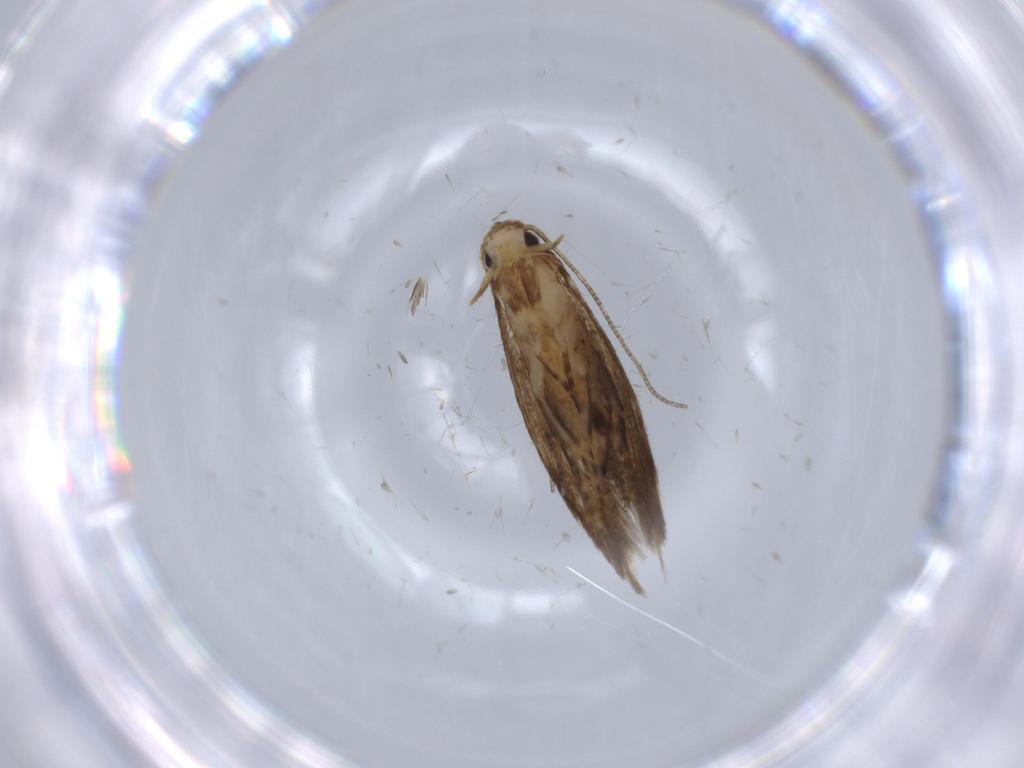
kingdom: Animalia
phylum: Arthropoda
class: Insecta
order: Lepidoptera
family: Tineidae
